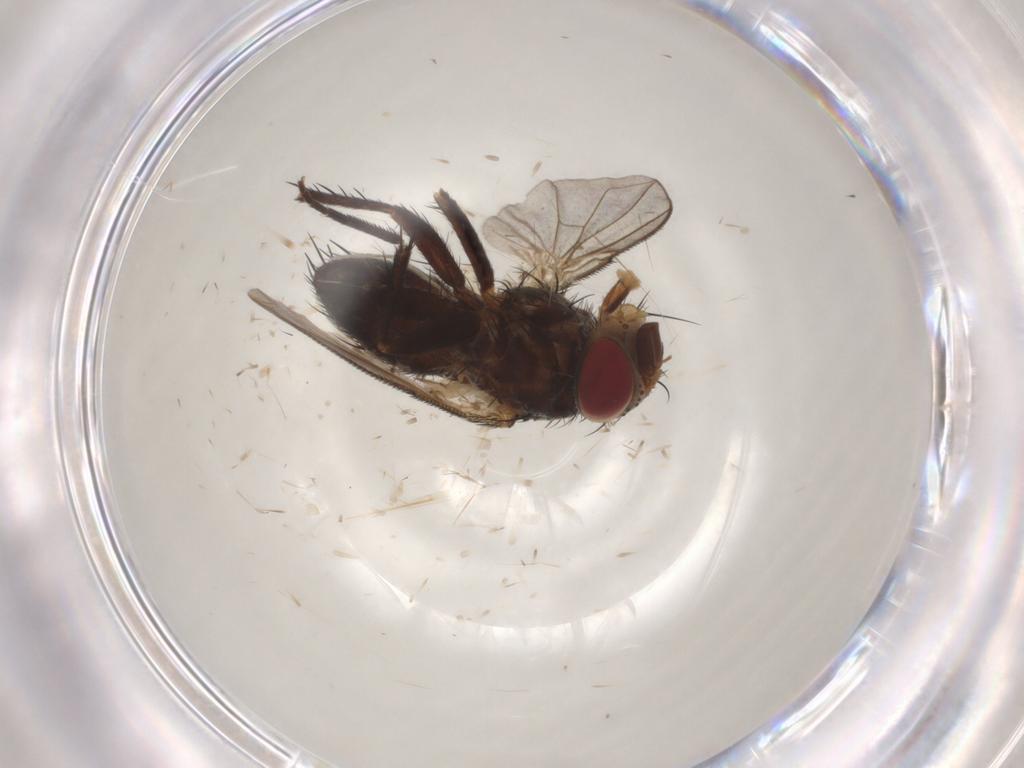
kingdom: Animalia
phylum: Arthropoda
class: Insecta
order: Diptera
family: Tachinidae
